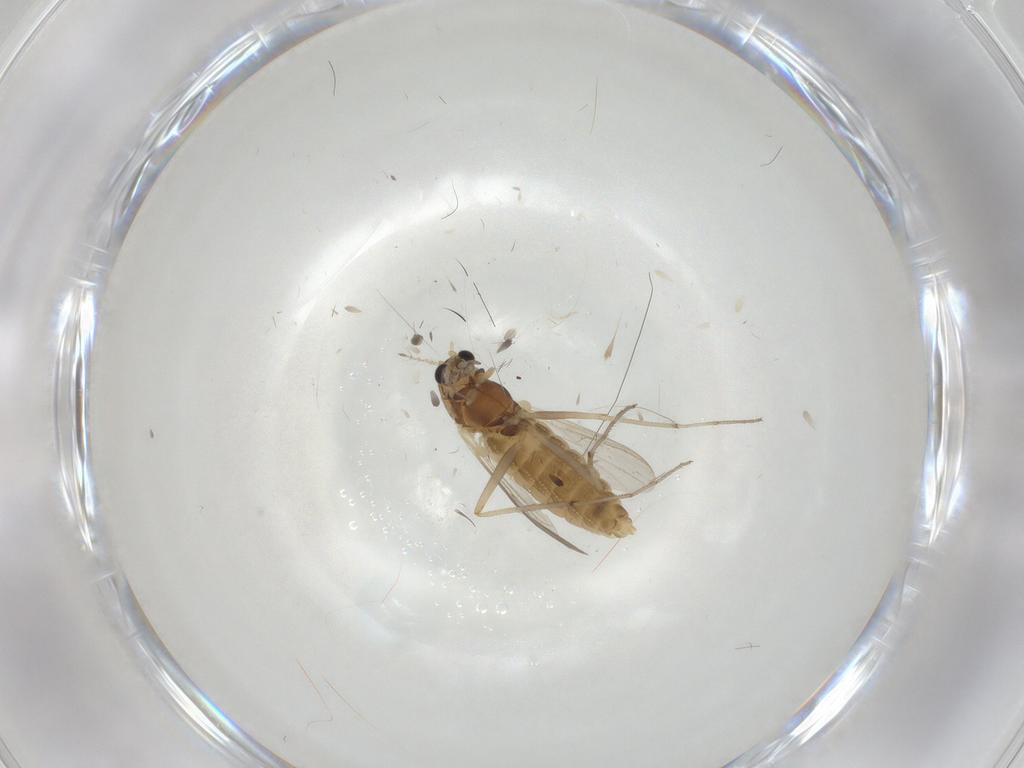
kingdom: Animalia
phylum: Arthropoda
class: Insecta
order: Diptera
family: Chironomidae
